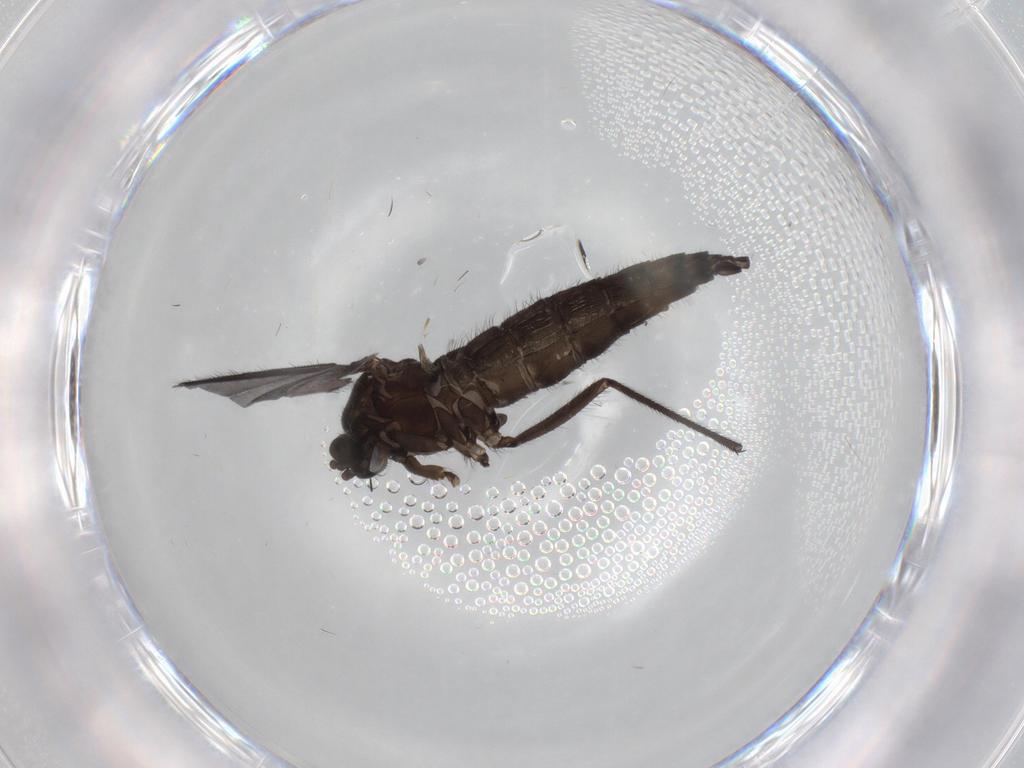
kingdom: Animalia
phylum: Arthropoda
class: Insecta
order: Diptera
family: Sciaridae
